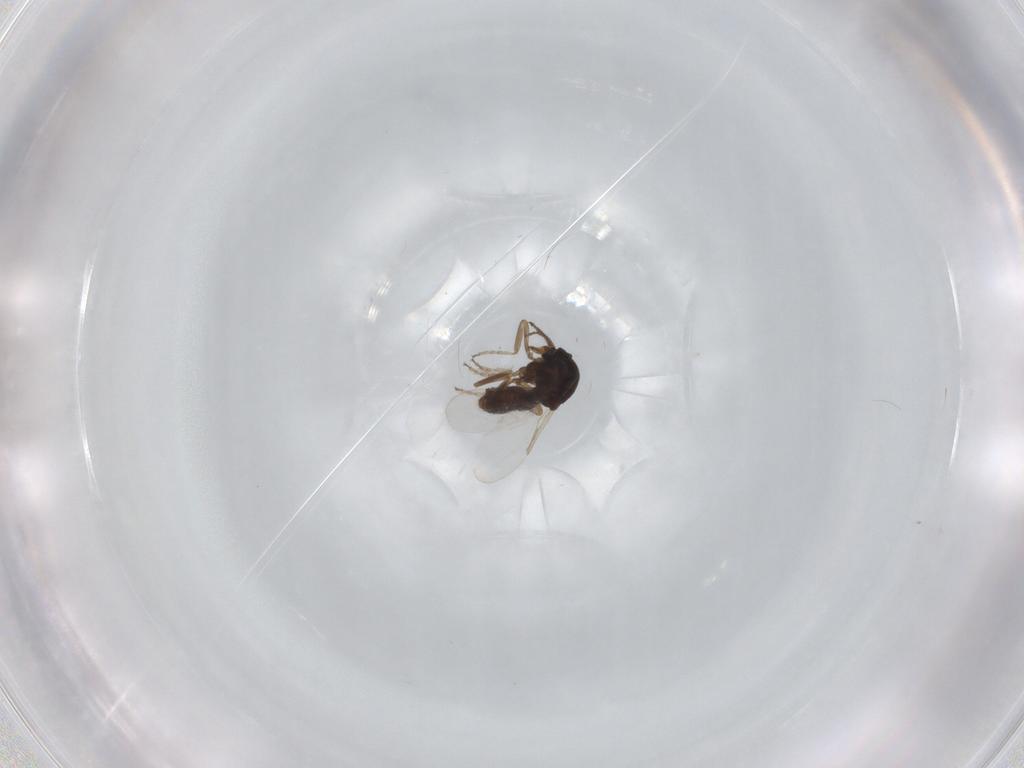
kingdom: Animalia
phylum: Arthropoda
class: Insecta
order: Diptera
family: Ceratopogonidae
